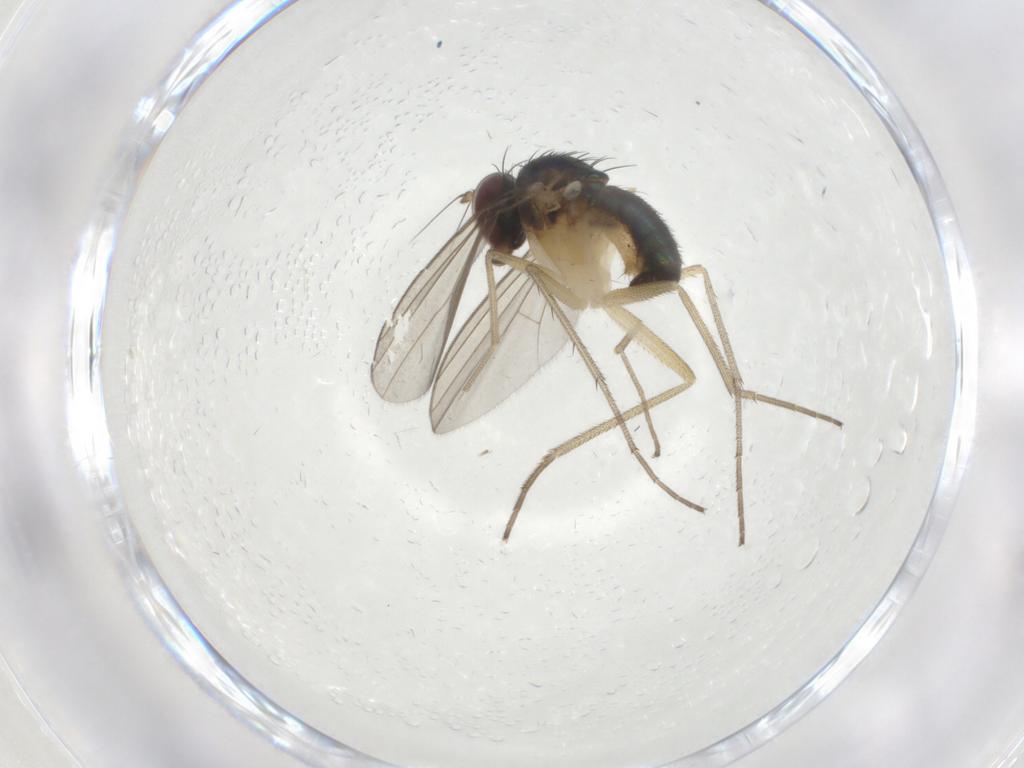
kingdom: Animalia
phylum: Arthropoda
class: Insecta
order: Diptera
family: Dolichopodidae
